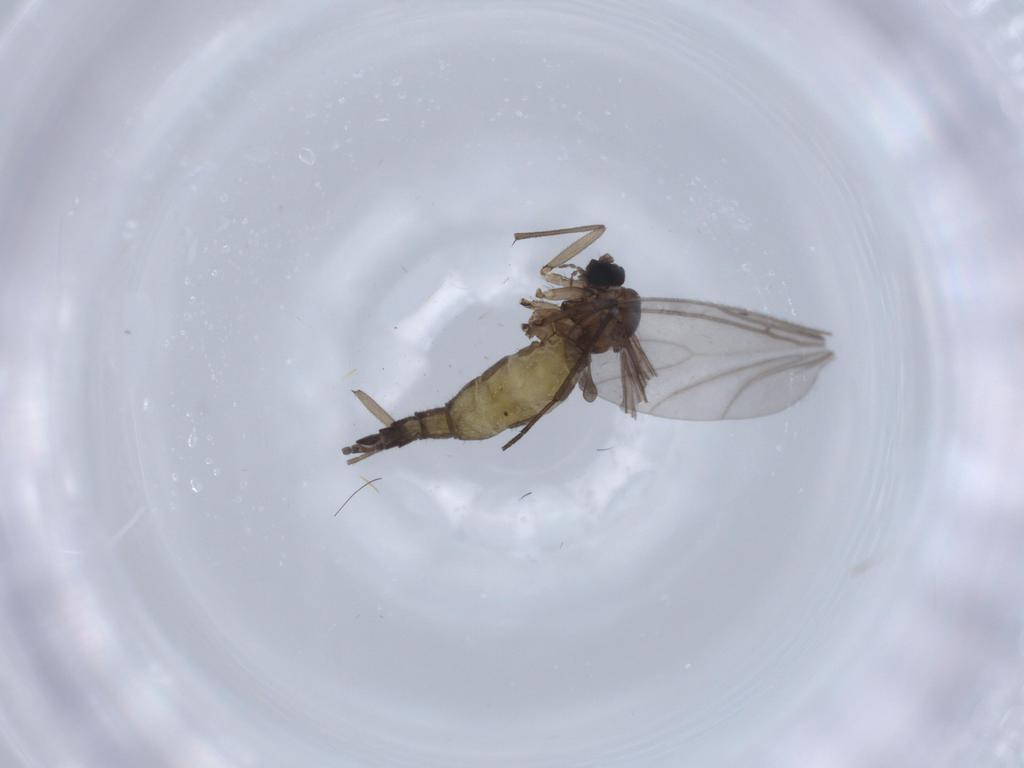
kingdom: Animalia
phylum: Arthropoda
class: Insecta
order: Diptera
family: Sciaridae
